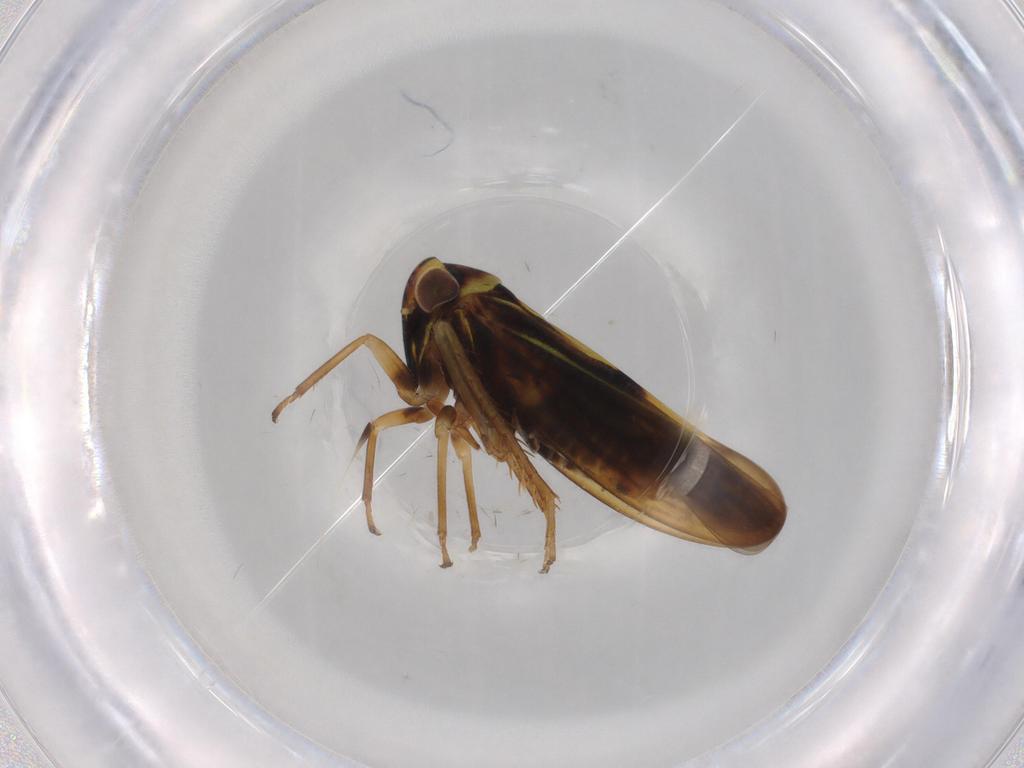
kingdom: Animalia
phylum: Arthropoda
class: Insecta
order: Hemiptera
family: Cicadellidae
